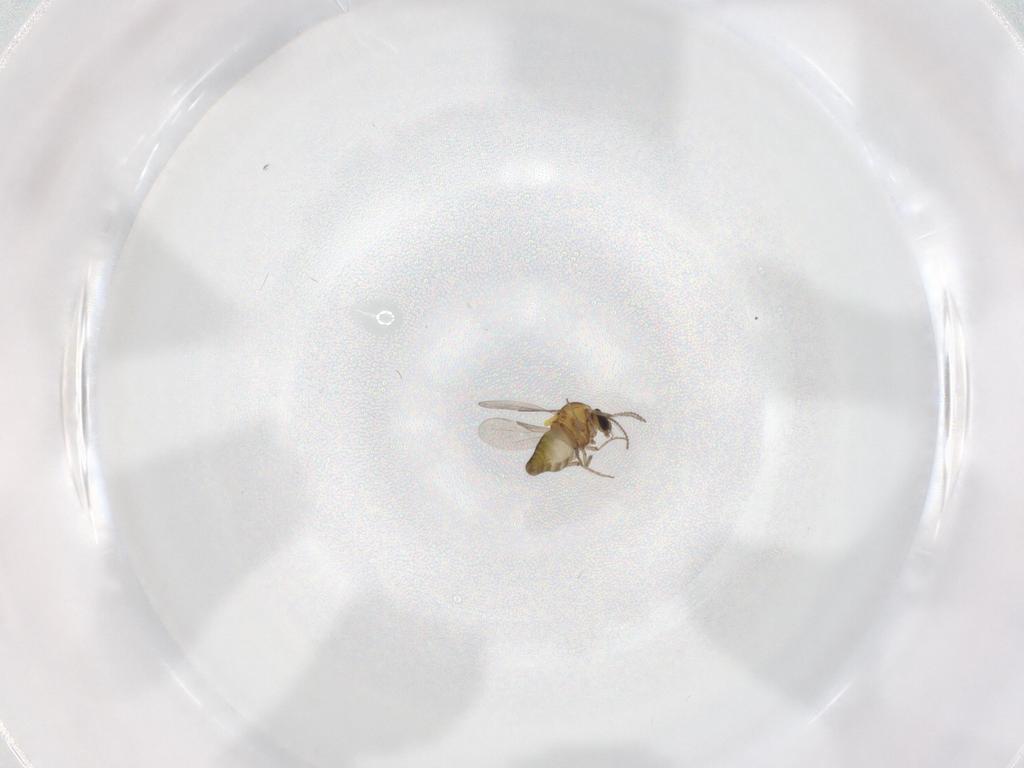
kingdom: Animalia
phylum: Arthropoda
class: Insecta
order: Diptera
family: Ceratopogonidae
